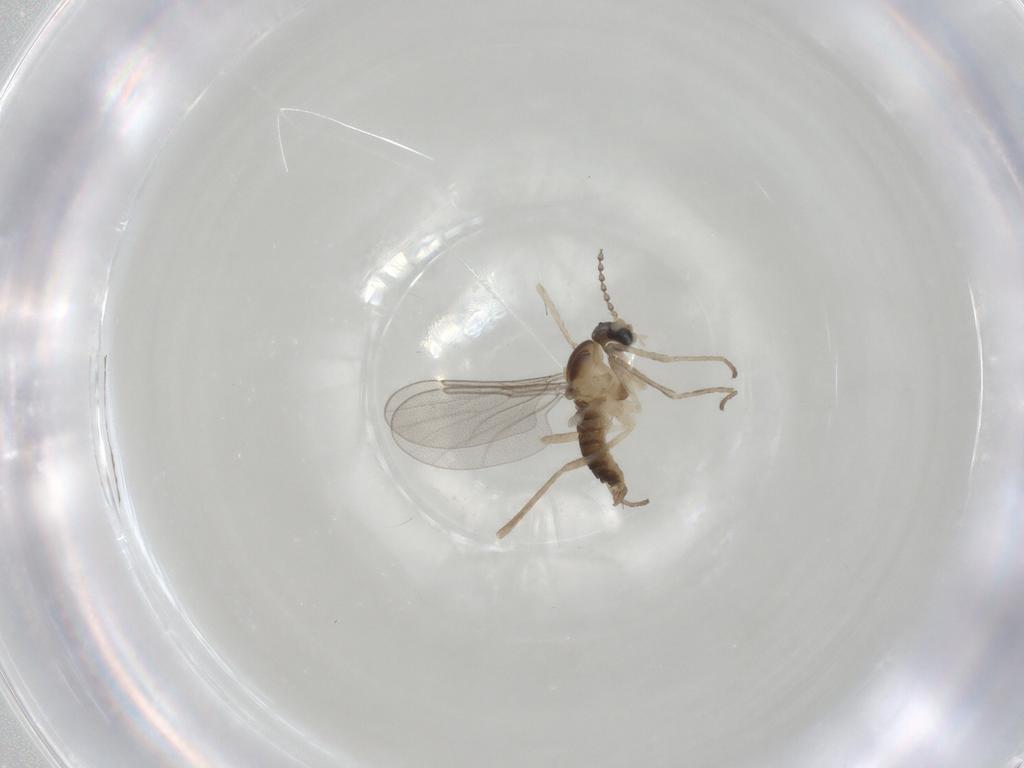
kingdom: Animalia
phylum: Arthropoda
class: Insecta
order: Diptera
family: Cecidomyiidae
